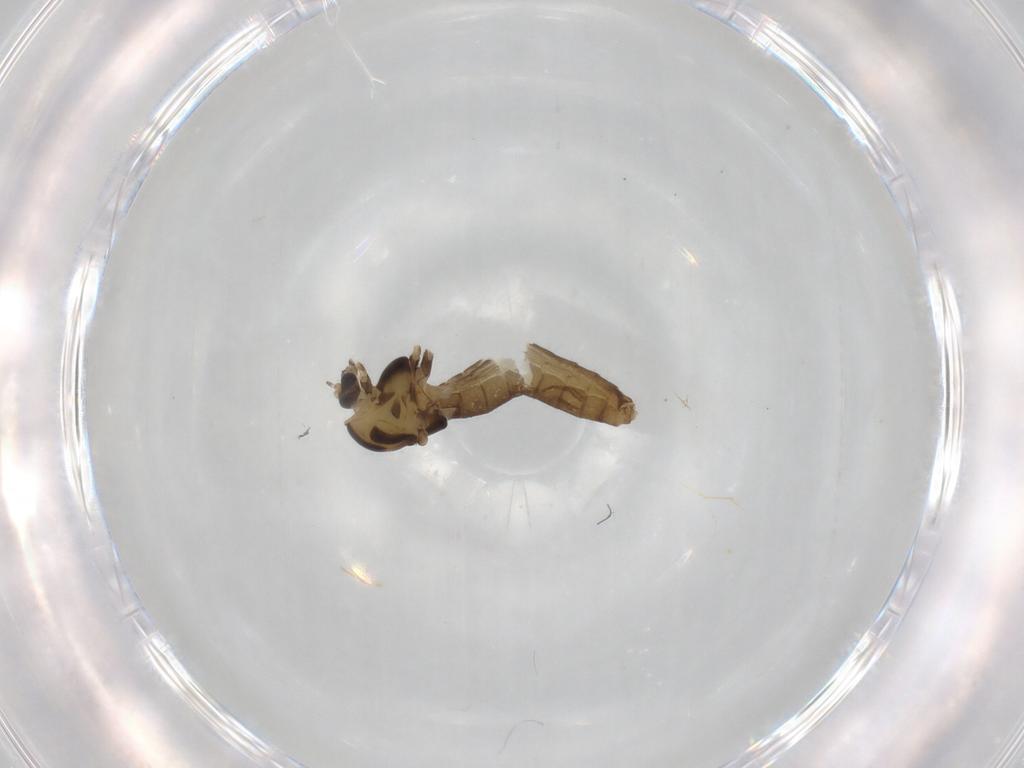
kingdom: Animalia
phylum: Arthropoda
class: Insecta
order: Diptera
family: Chironomidae
